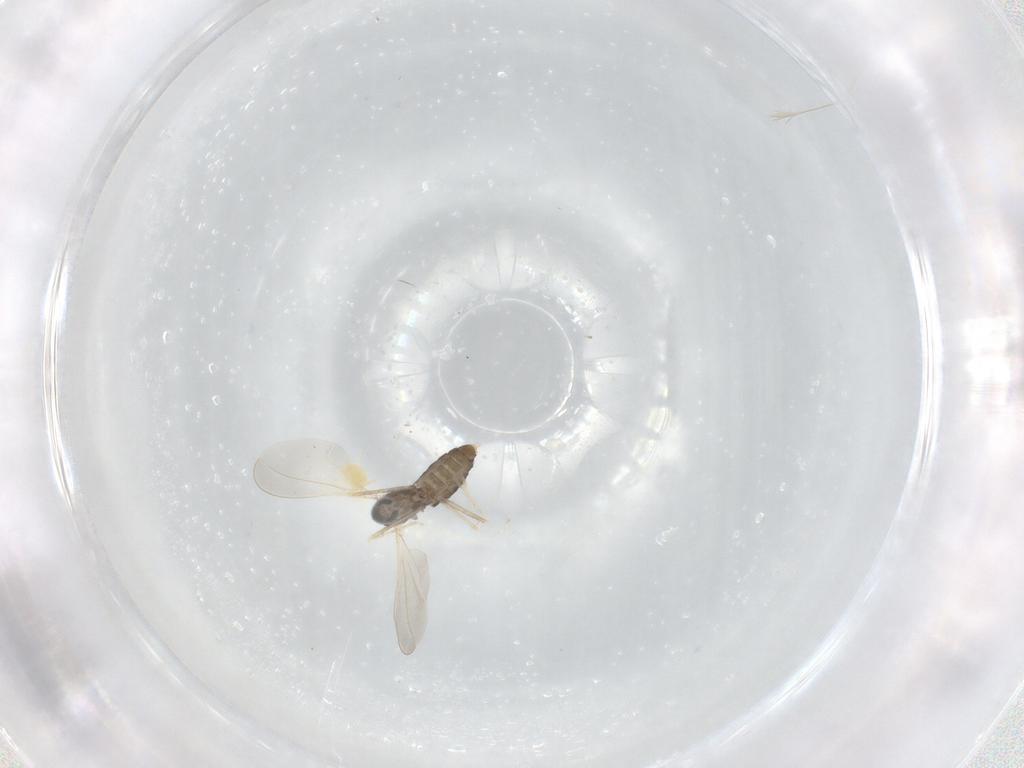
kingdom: Animalia
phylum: Arthropoda
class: Insecta
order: Diptera
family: Cecidomyiidae
